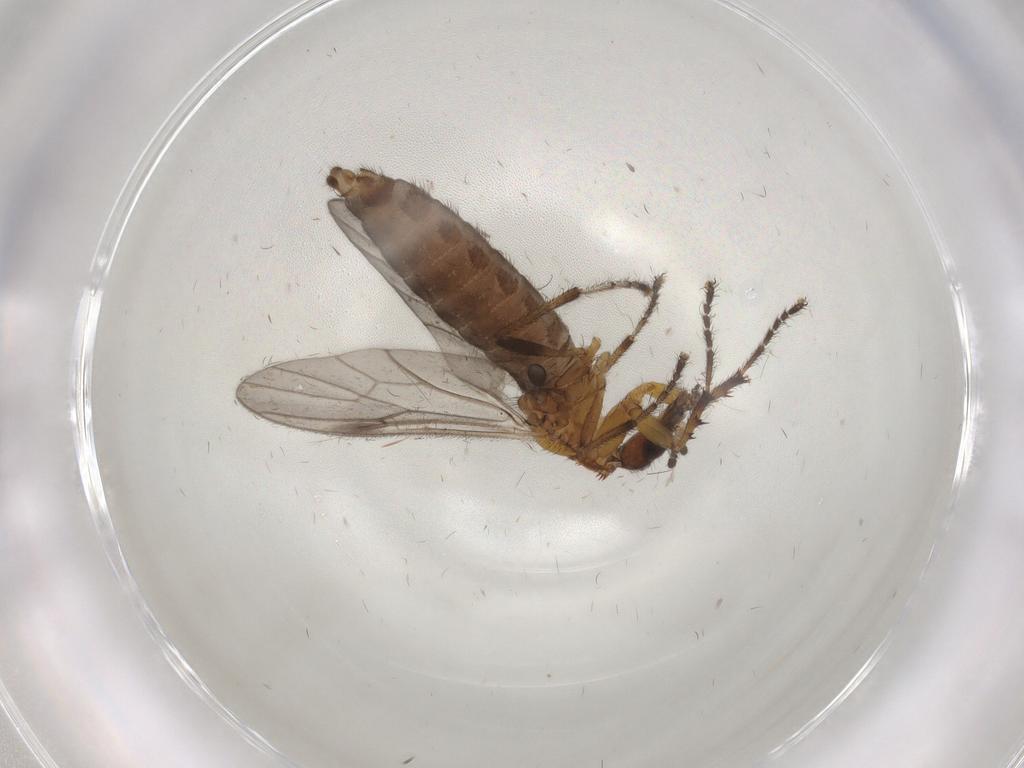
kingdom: Animalia
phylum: Arthropoda
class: Insecta
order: Diptera
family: Bibionidae
